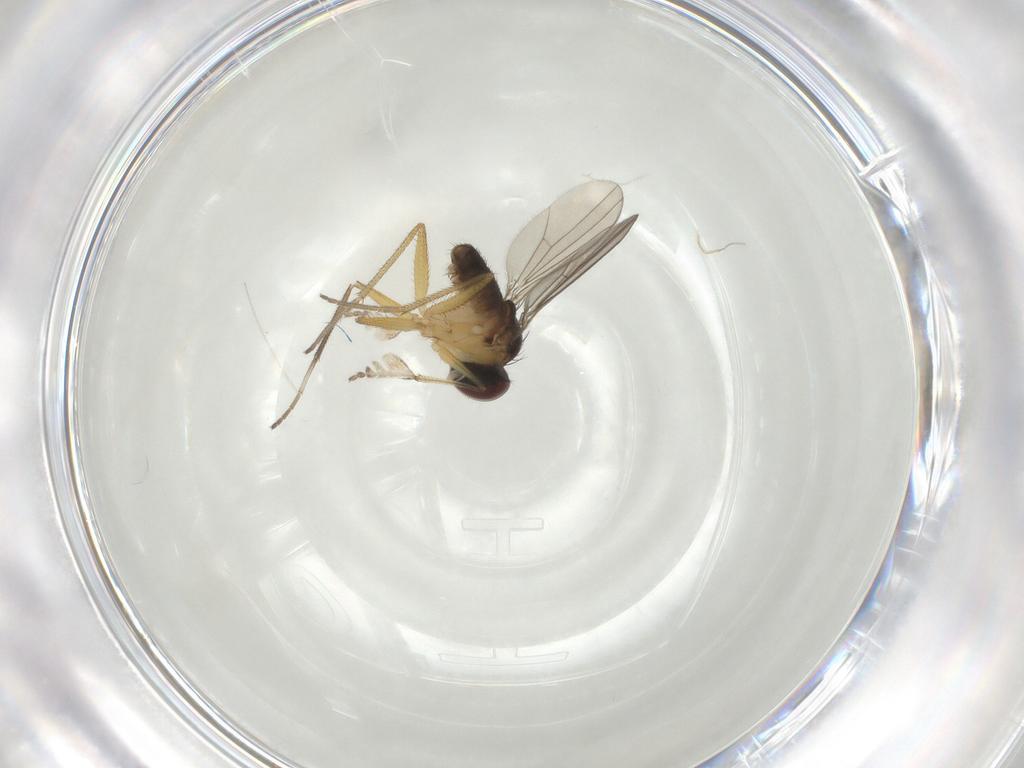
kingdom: Animalia
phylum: Arthropoda
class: Insecta
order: Diptera
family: Dolichopodidae
